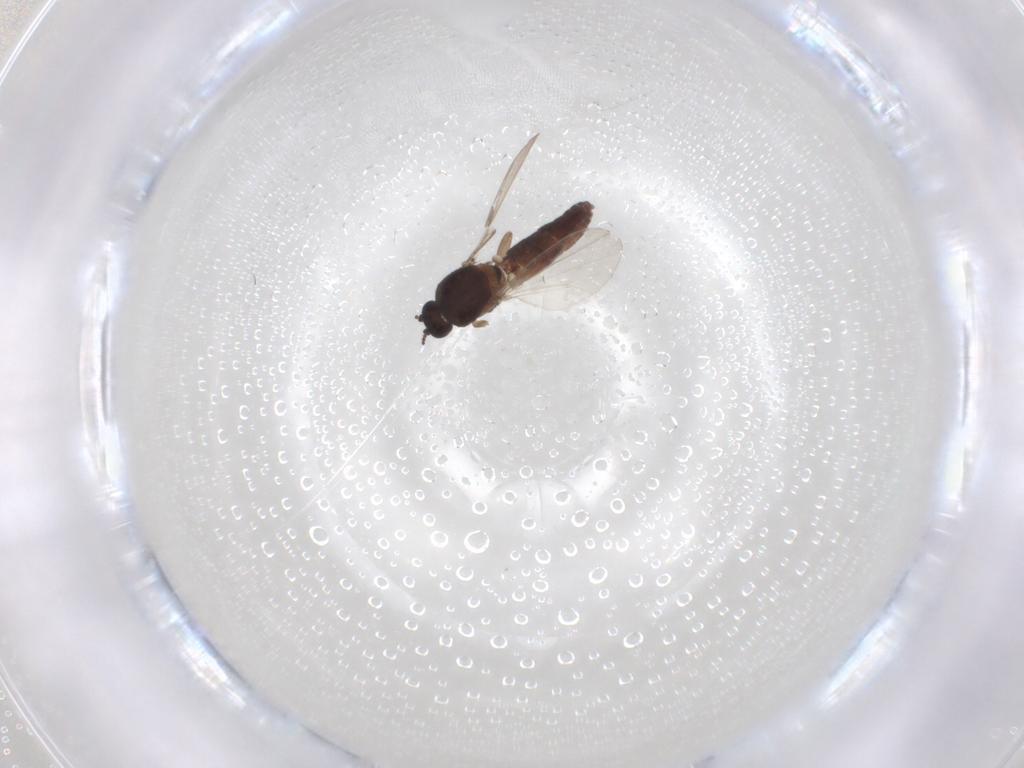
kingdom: Animalia
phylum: Arthropoda
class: Insecta
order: Diptera
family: Ceratopogonidae
